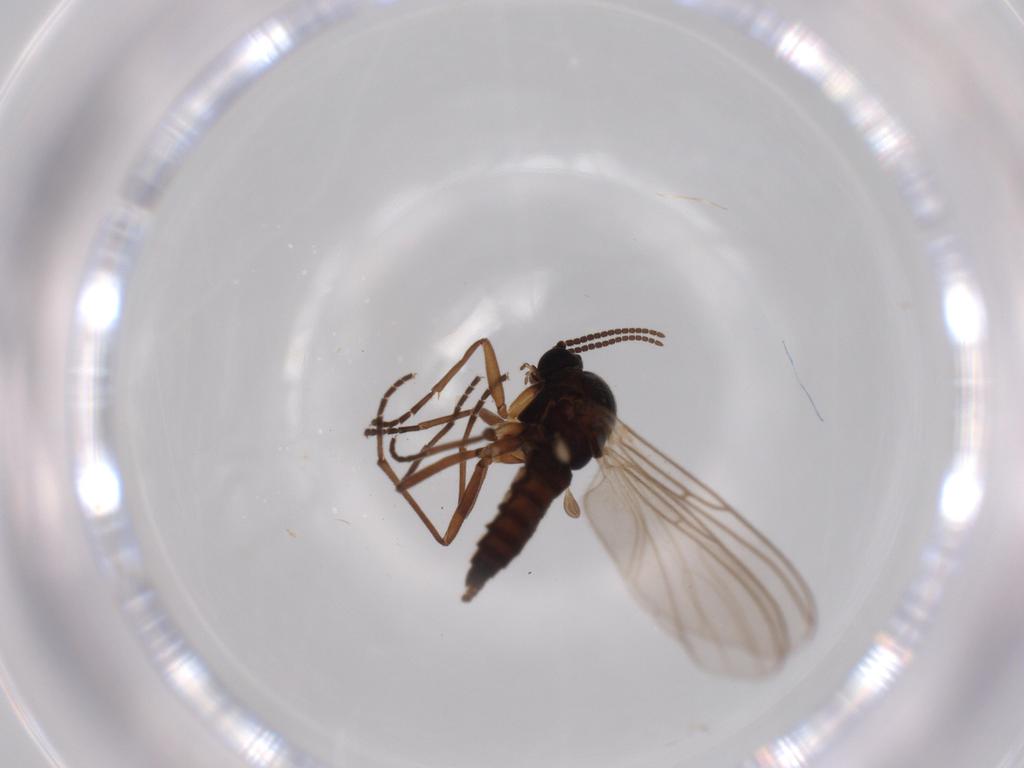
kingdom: Animalia
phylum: Arthropoda
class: Insecta
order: Diptera
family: Sciaridae
